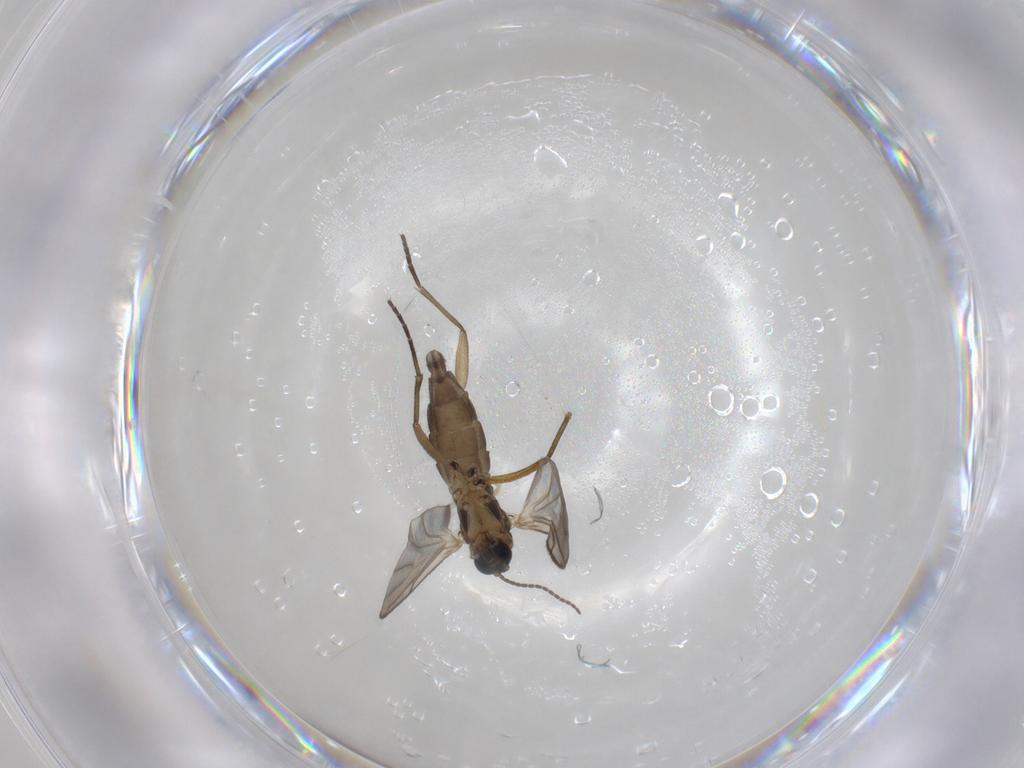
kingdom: Animalia
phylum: Arthropoda
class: Insecta
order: Diptera
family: Sciaridae
